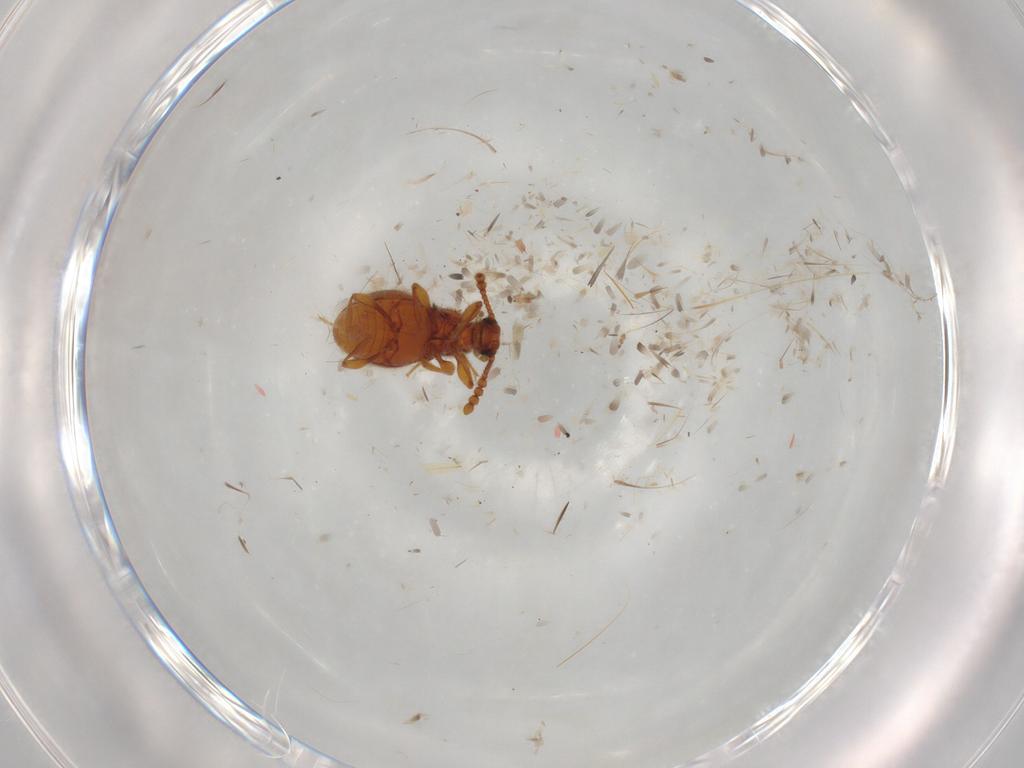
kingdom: Animalia
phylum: Arthropoda
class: Insecta
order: Coleoptera
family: Staphylinidae
